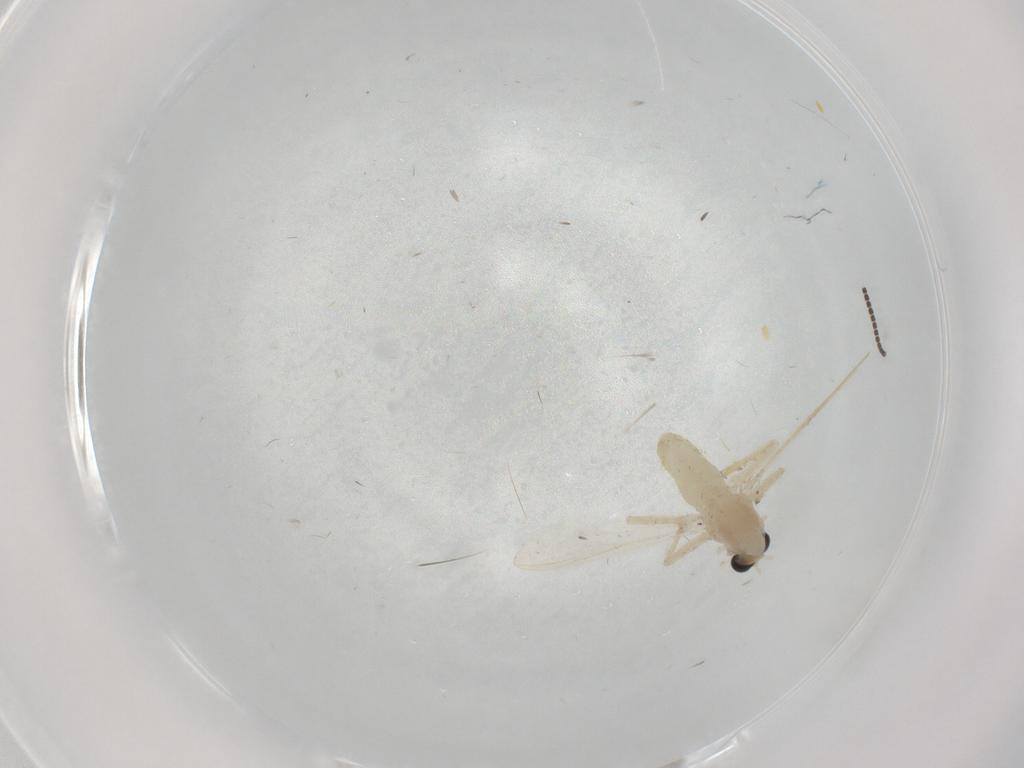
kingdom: Animalia
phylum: Arthropoda
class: Insecta
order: Diptera
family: Chironomidae
